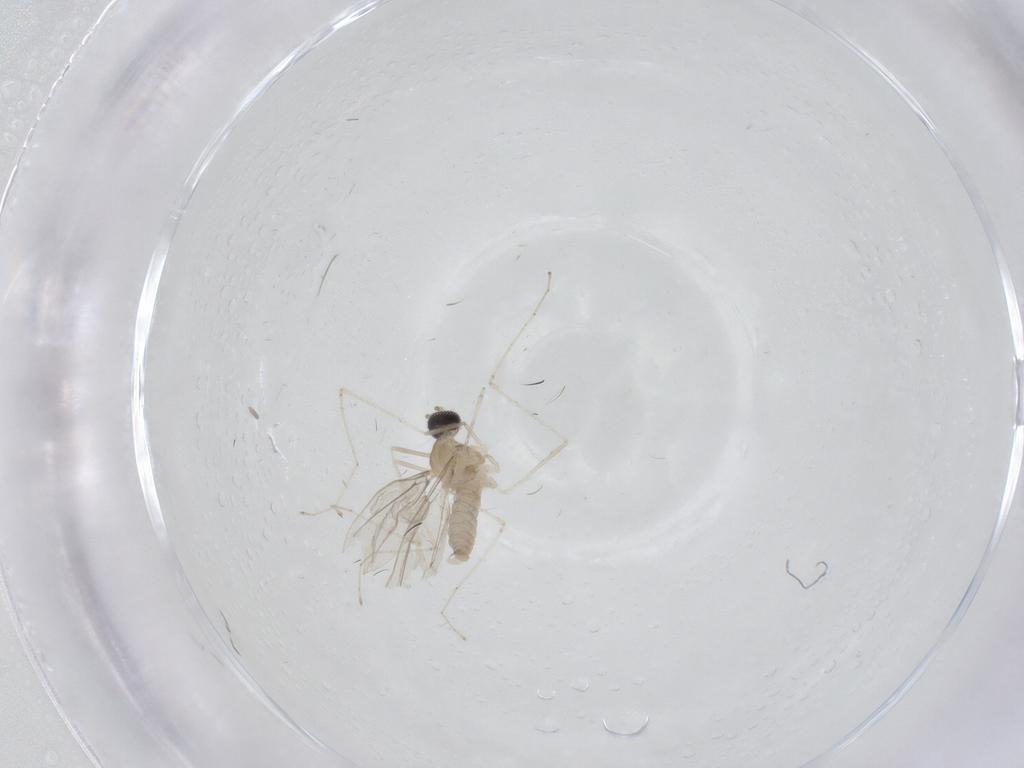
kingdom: Animalia
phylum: Arthropoda
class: Insecta
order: Diptera
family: Cecidomyiidae
